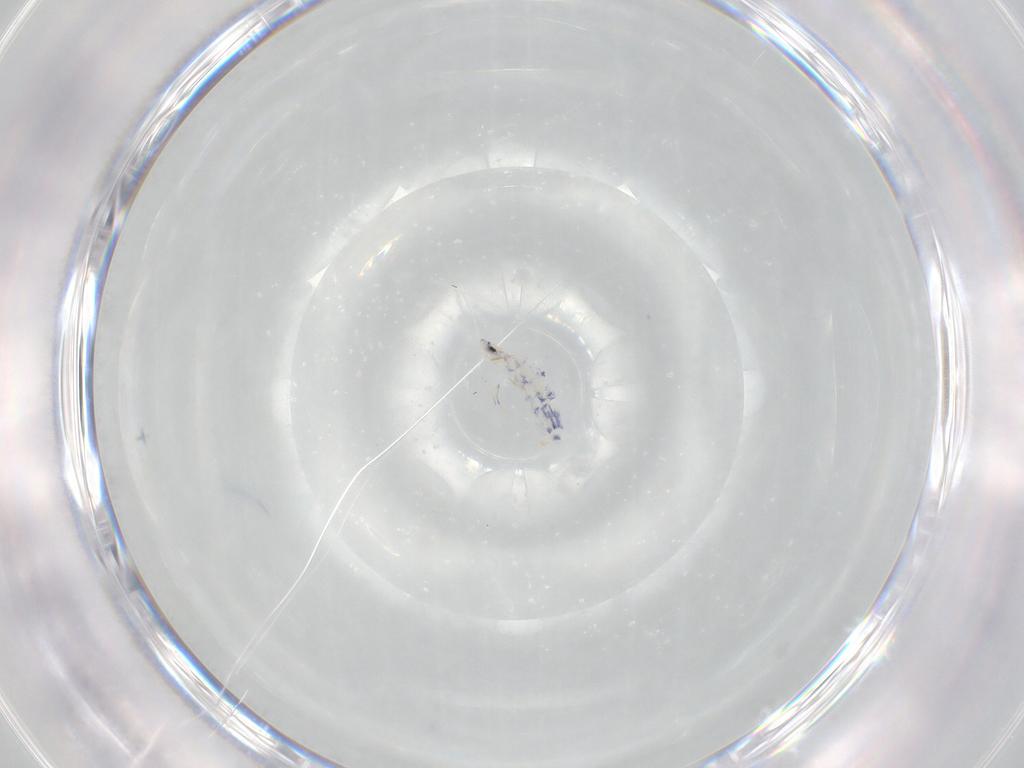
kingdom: Animalia
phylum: Arthropoda
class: Collembola
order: Entomobryomorpha
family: Entomobryidae
